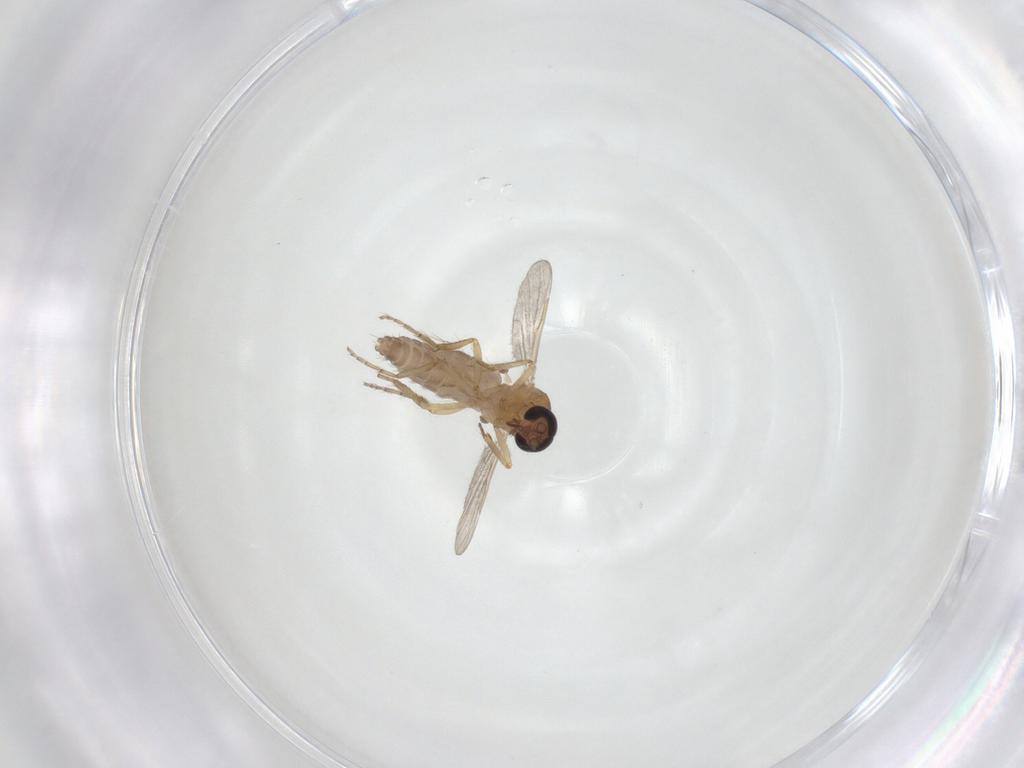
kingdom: Animalia
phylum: Arthropoda
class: Insecta
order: Diptera
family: Ceratopogonidae
